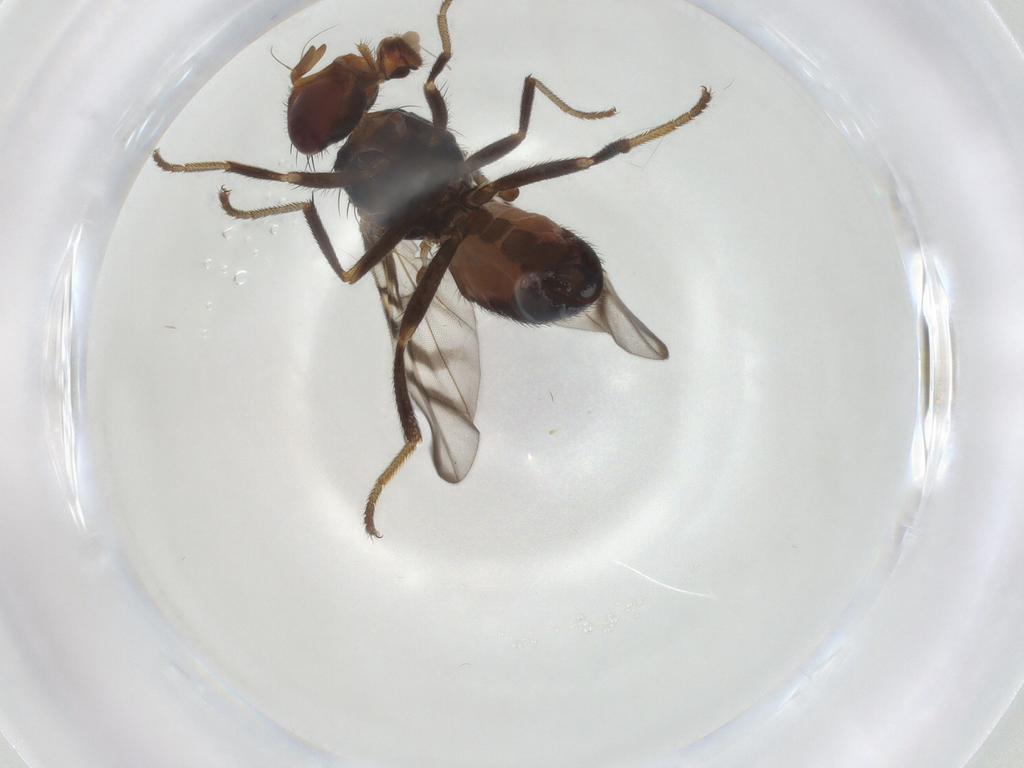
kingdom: Animalia
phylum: Arthropoda
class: Insecta
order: Diptera
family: Platystomatidae
